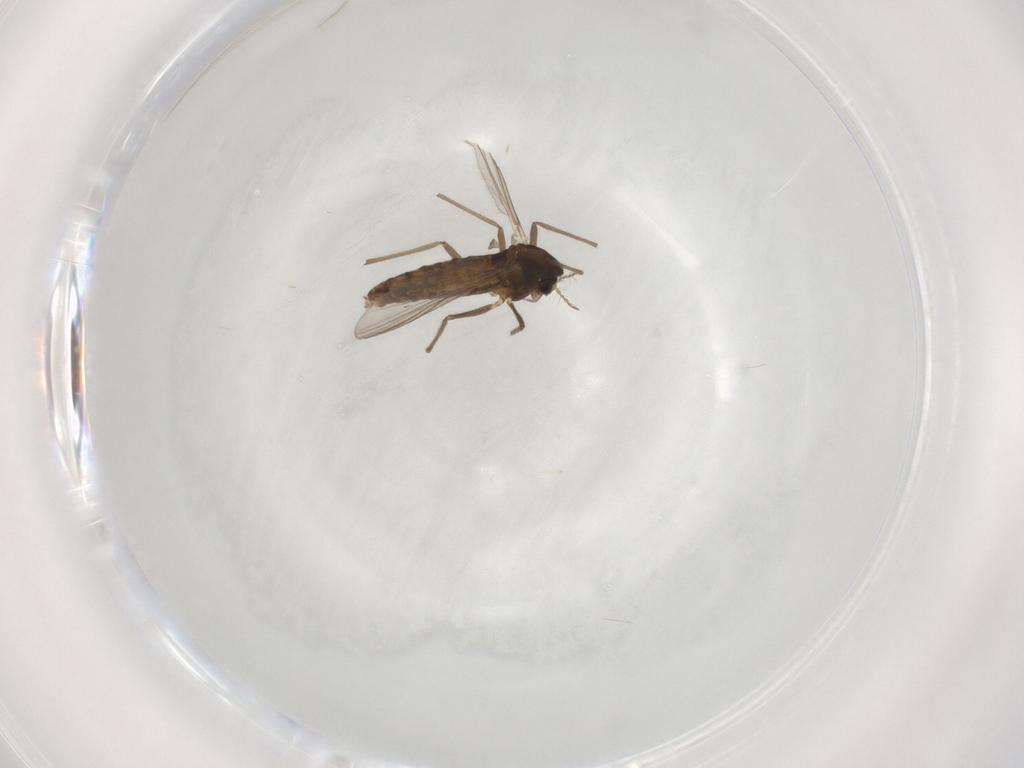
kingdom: Animalia
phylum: Arthropoda
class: Insecta
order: Diptera
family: Chironomidae
